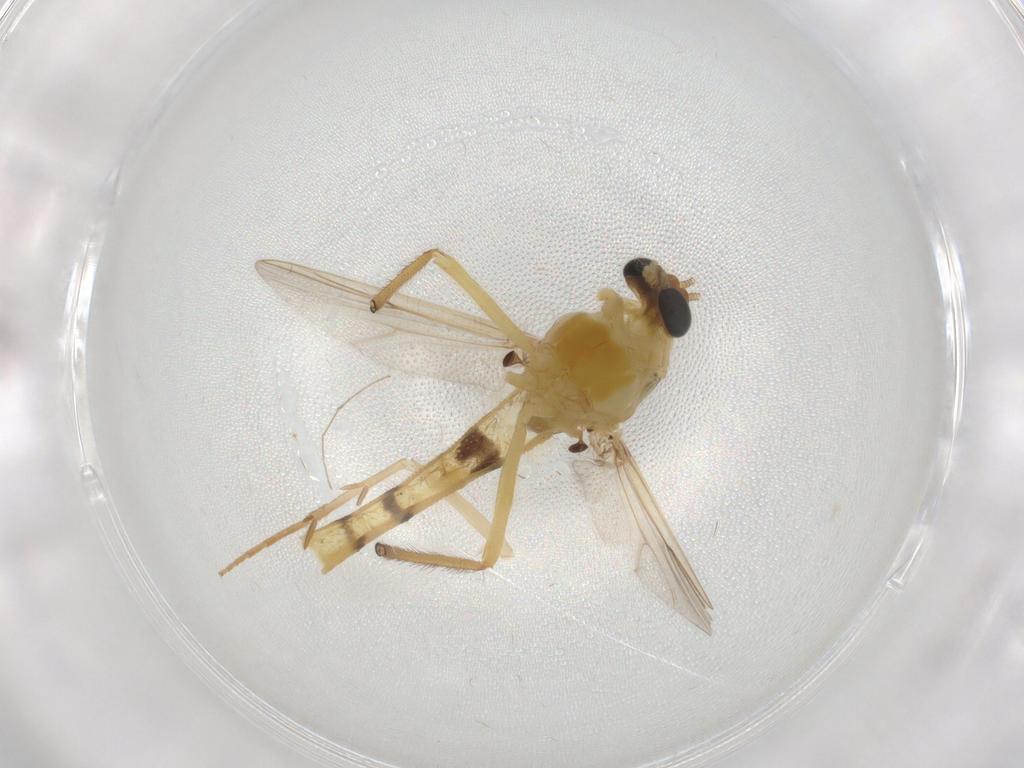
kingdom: Animalia
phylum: Arthropoda
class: Insecta
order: Diptera
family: Chironomidae
